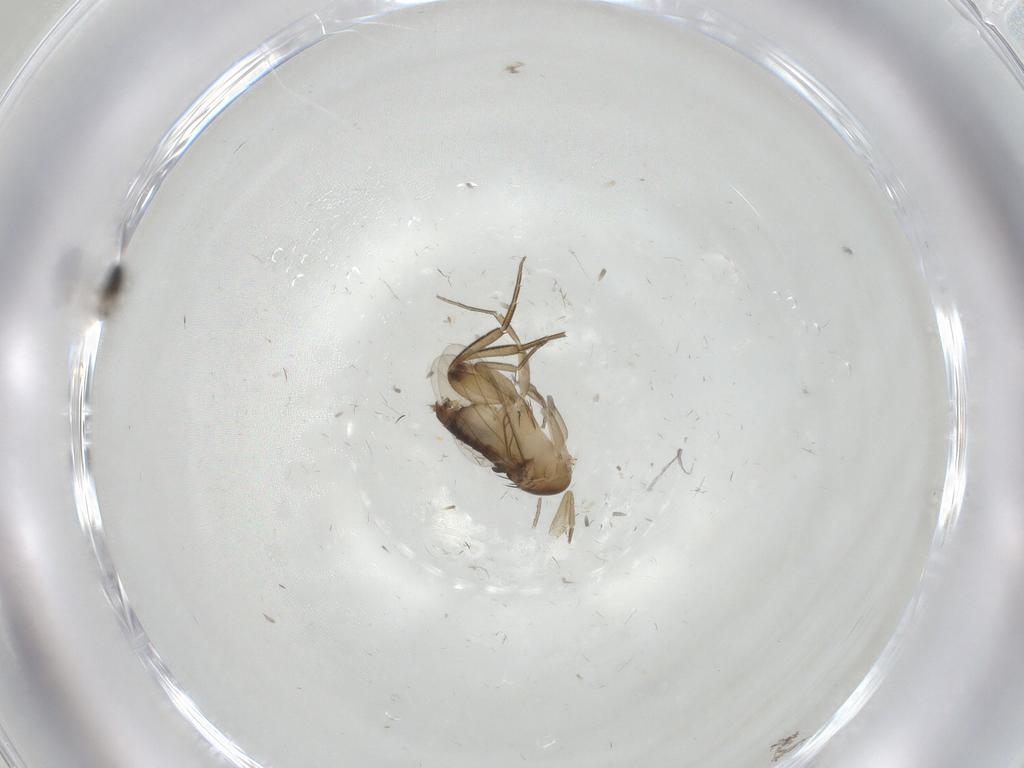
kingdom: Animalia
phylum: Arthropoda
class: Insecta
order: Diptera
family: Phoridae
